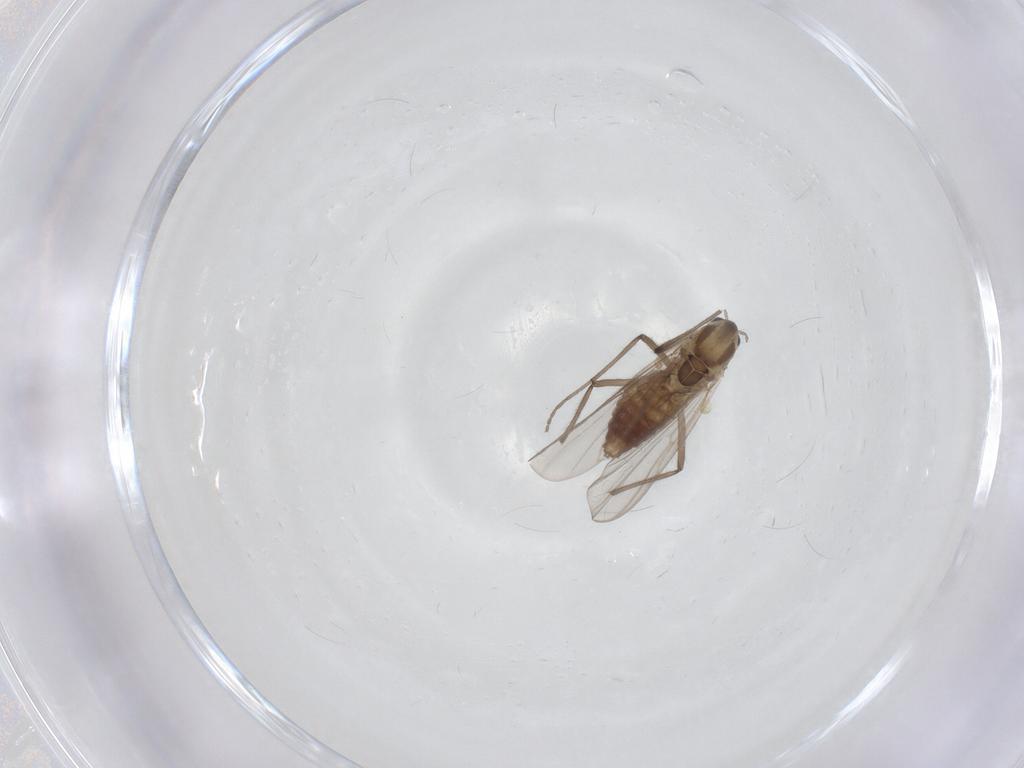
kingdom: Animalia
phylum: Arthropoda
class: Insecta
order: Diptera
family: Chironomidae
